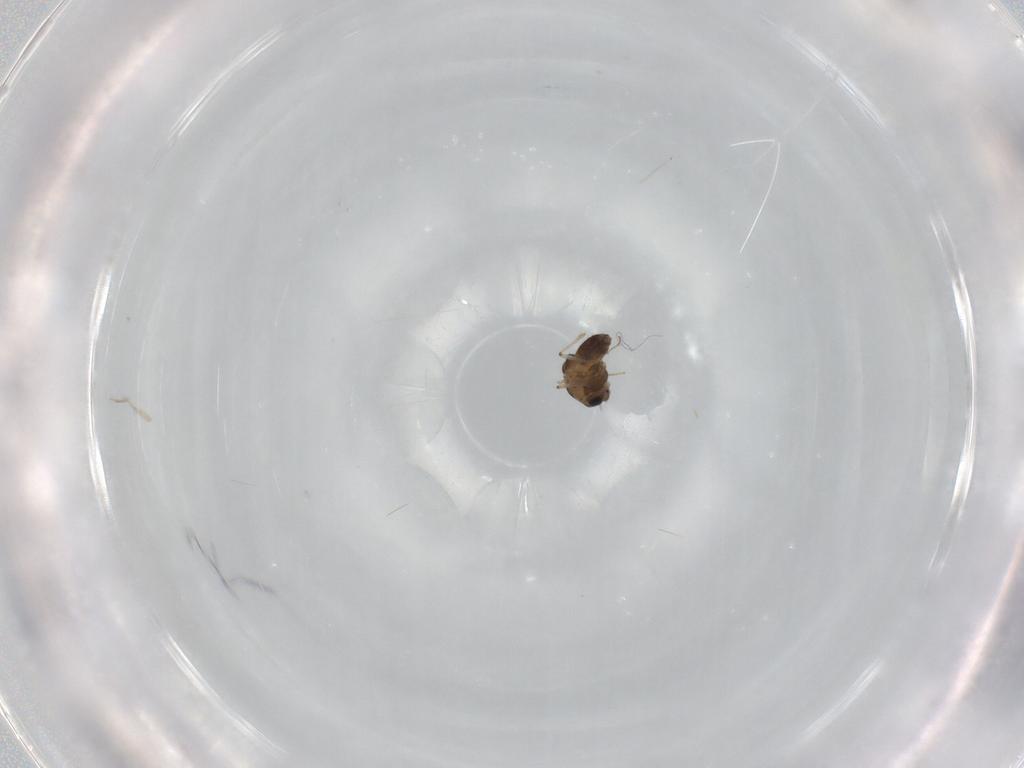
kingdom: Animalia
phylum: Arthropoda
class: Insecta
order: Diptera
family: Chironomidae
